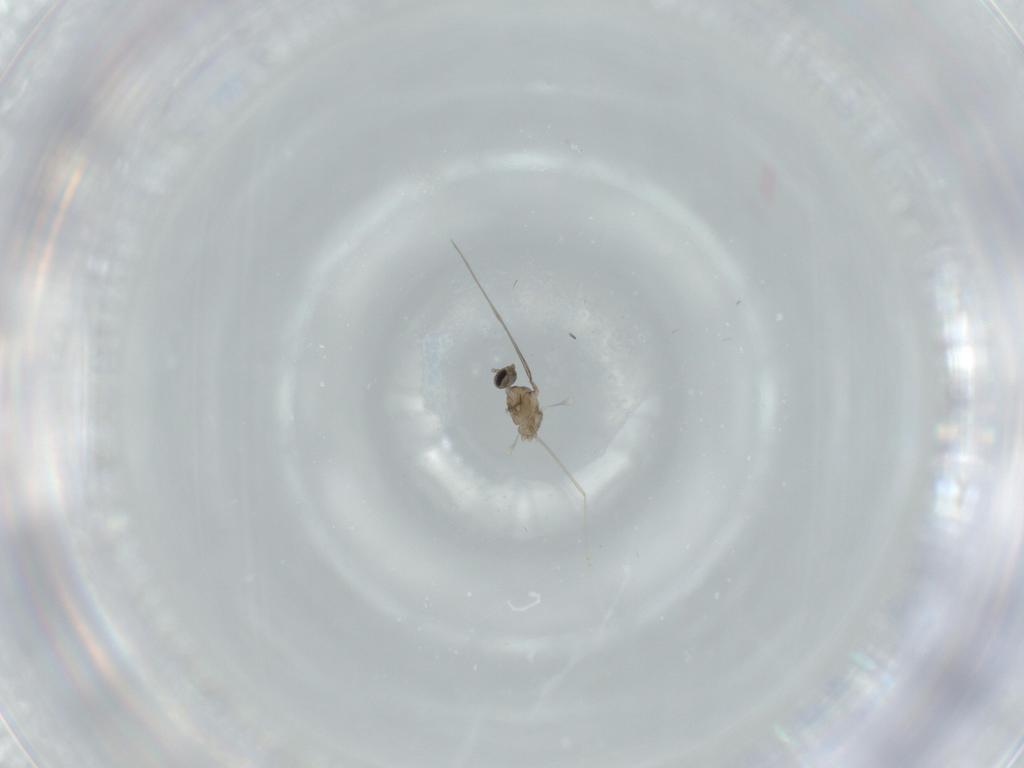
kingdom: Animalia
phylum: Arthropoda
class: Insecta
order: Diptera
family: Cecidomyiidae
